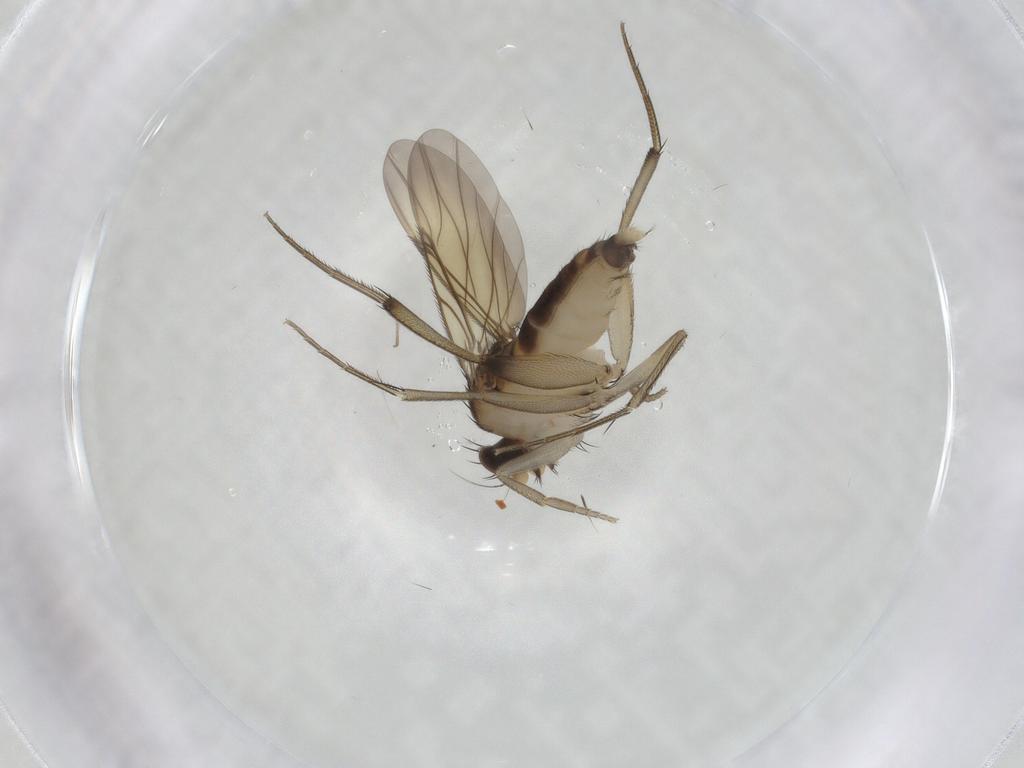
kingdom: Animalia
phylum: Arthropoda
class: Insecta
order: Diptera
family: Phoridae
